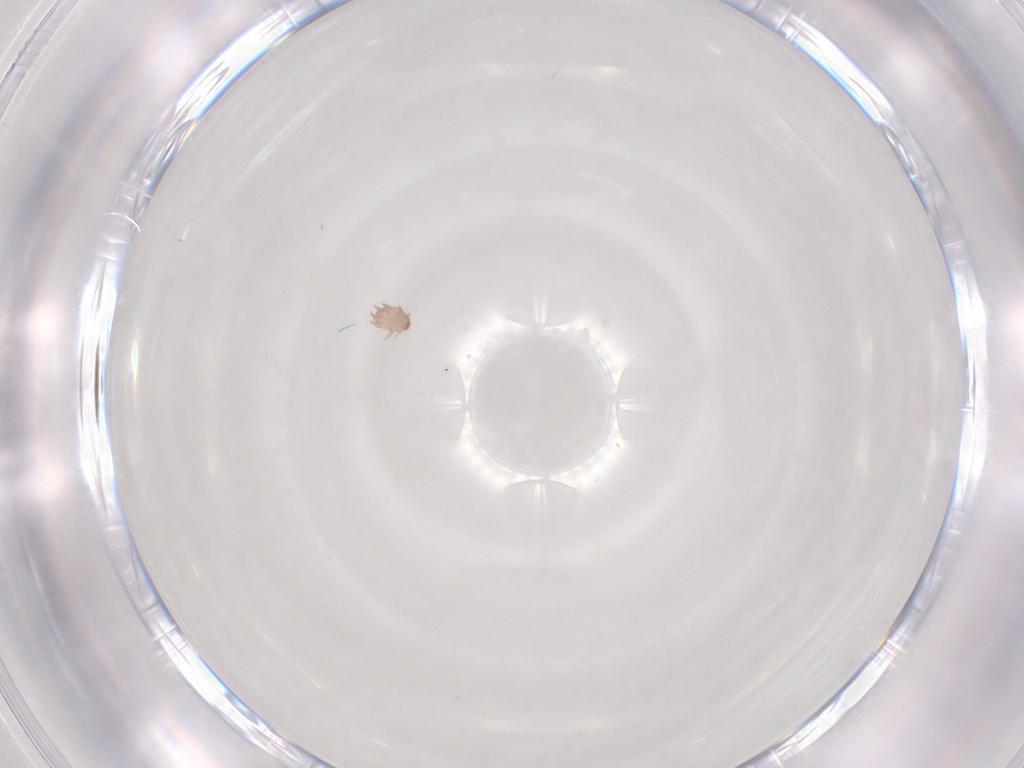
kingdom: Animalia
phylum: Arthropoda
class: Insecta
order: Psocodea
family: Lachesillidae
